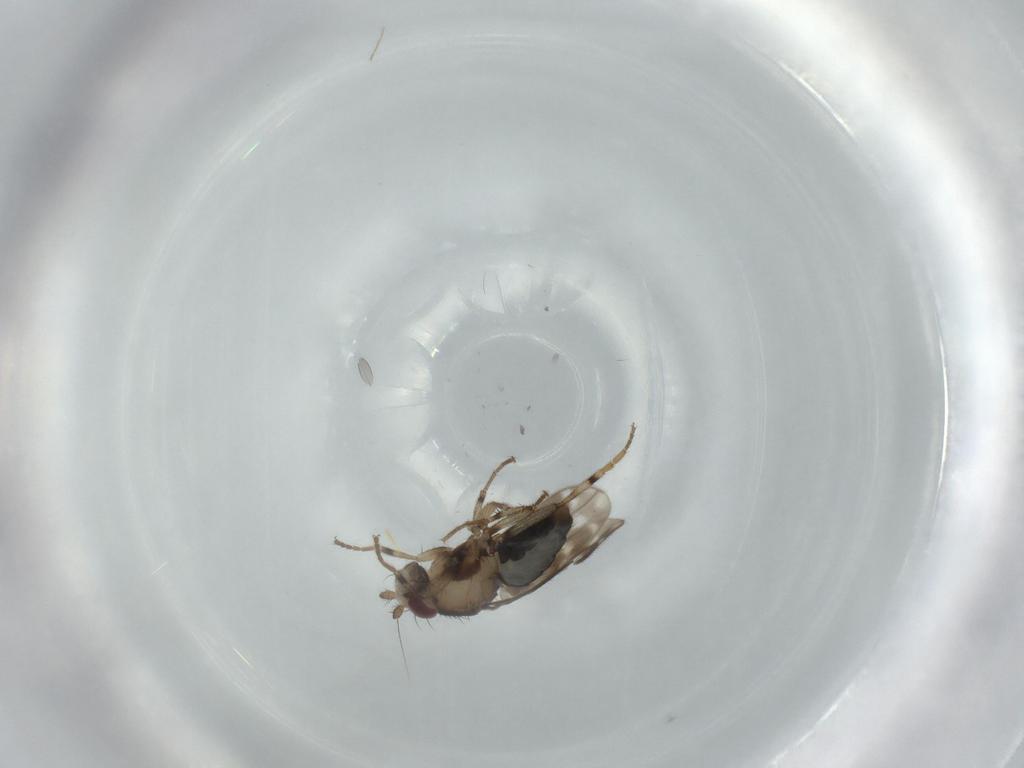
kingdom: Animalia
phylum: Arthropoda
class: Insecta
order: Diptera
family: Sphaeroceridae
